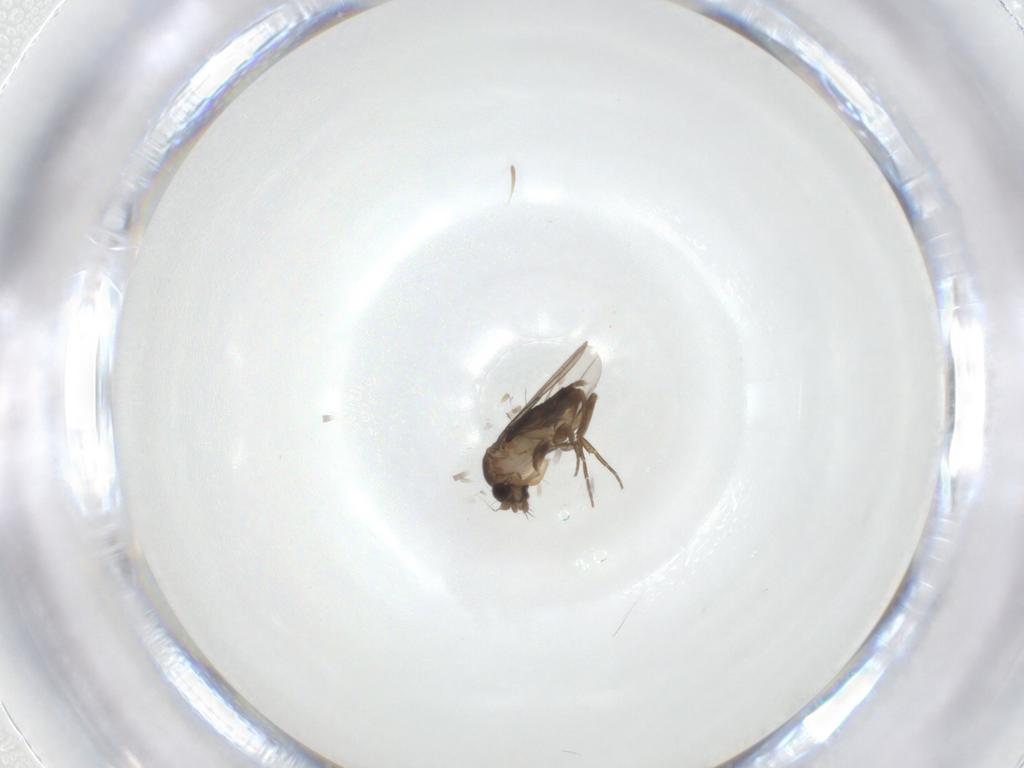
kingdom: Animalia
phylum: Arthropoda
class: Insecta
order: Diptera
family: Phoridae
